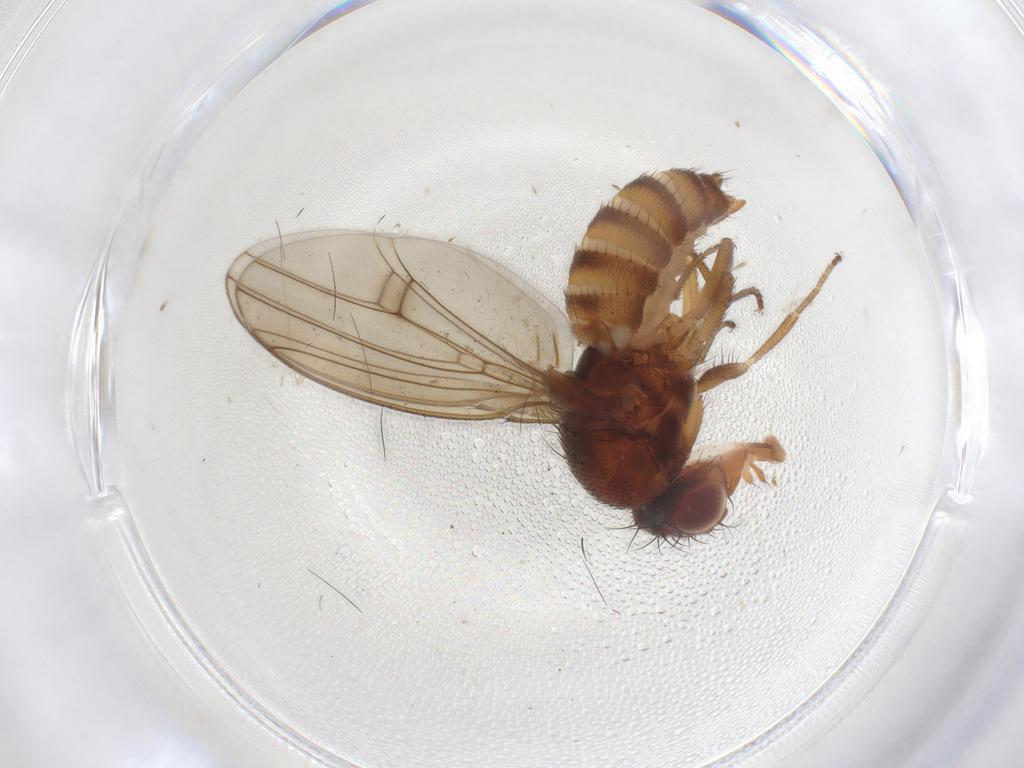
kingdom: Animalia
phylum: Arthropoda
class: Insecta
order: Diptera
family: Drosophilidae
